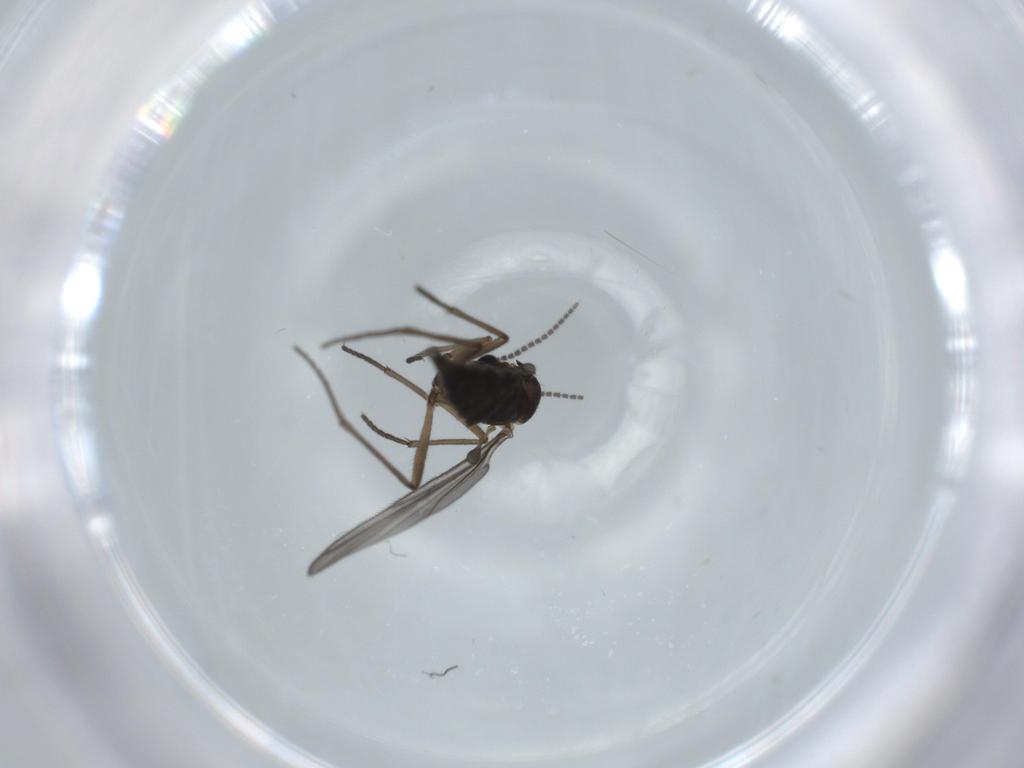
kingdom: Animalia
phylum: Arthropoda
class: Insecta
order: Diptera
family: Sciaridae
